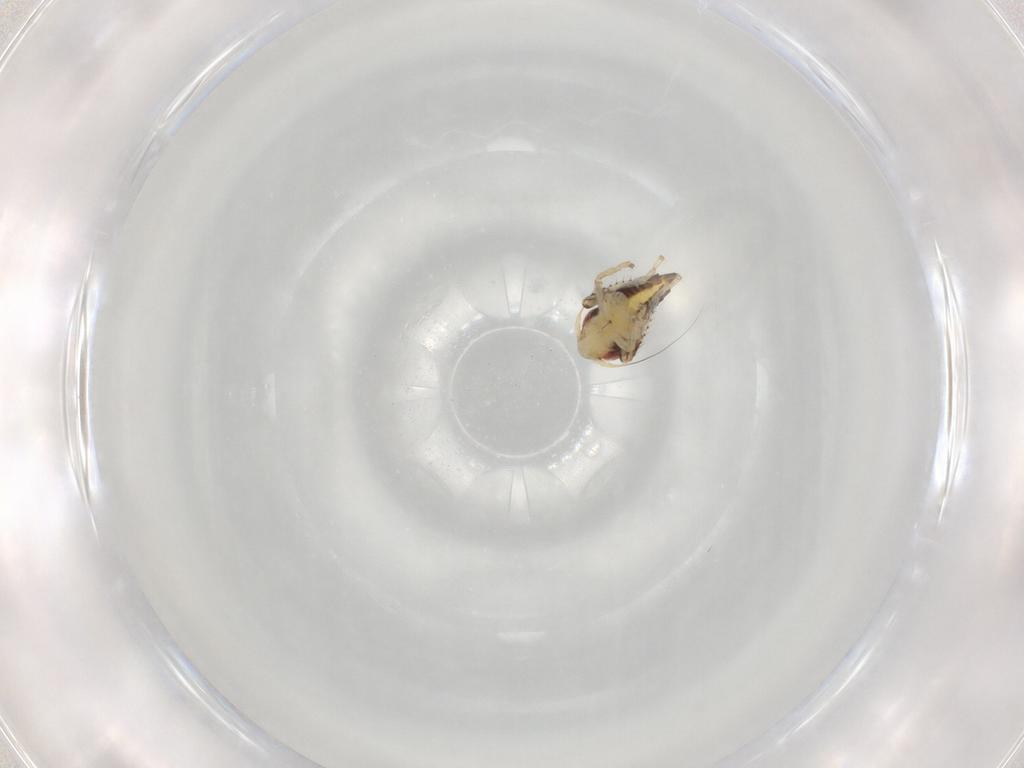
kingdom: Animalia
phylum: Arthropoda
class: Insecta
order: Hemiptera
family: Cicadellidae
